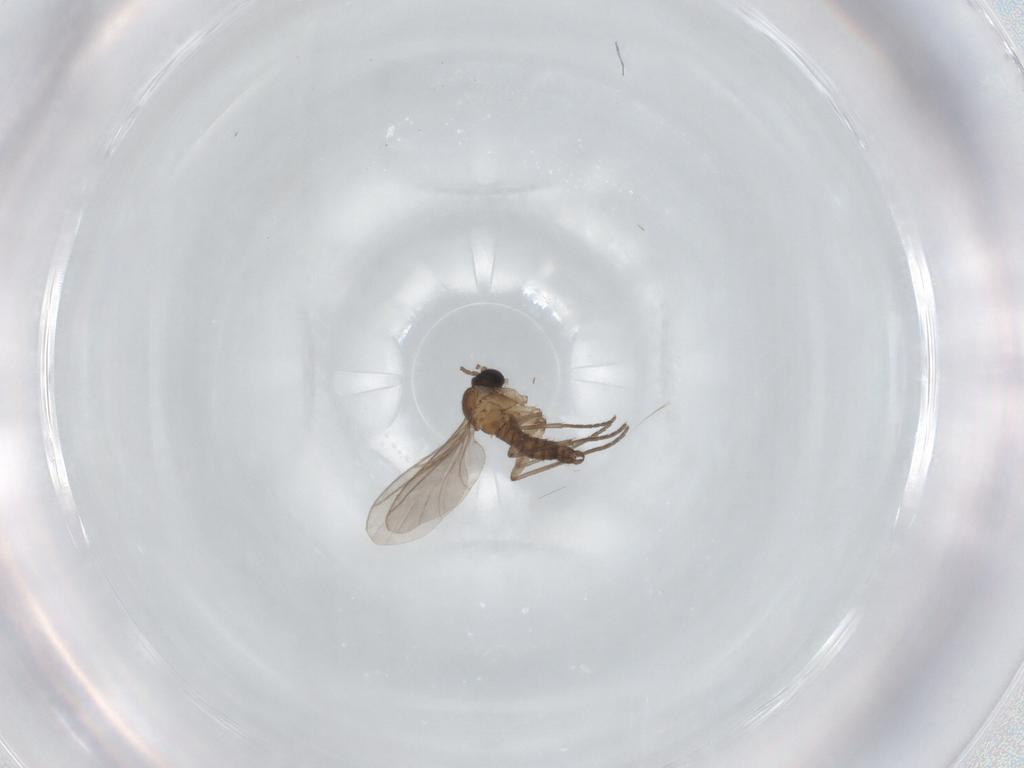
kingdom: Animalia
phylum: Arthropoda
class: Insecta
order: Diptera
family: Sciaridae
